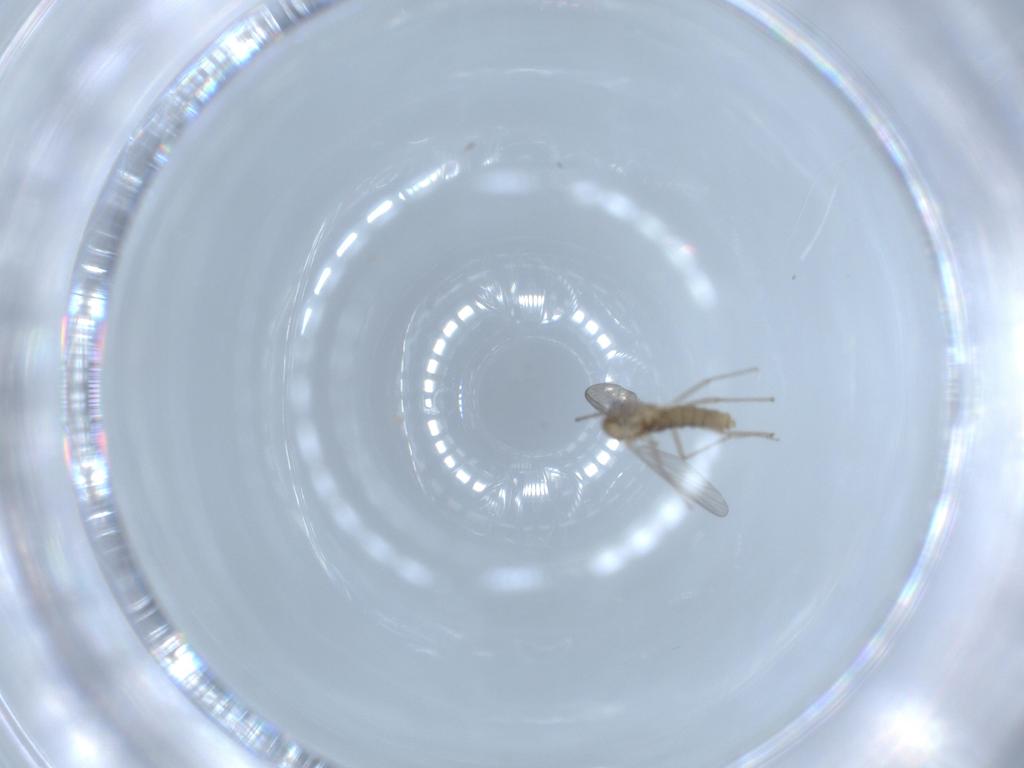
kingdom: Animalia
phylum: Arthropoda
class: Insecta
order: Diptera
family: Chironomidae
